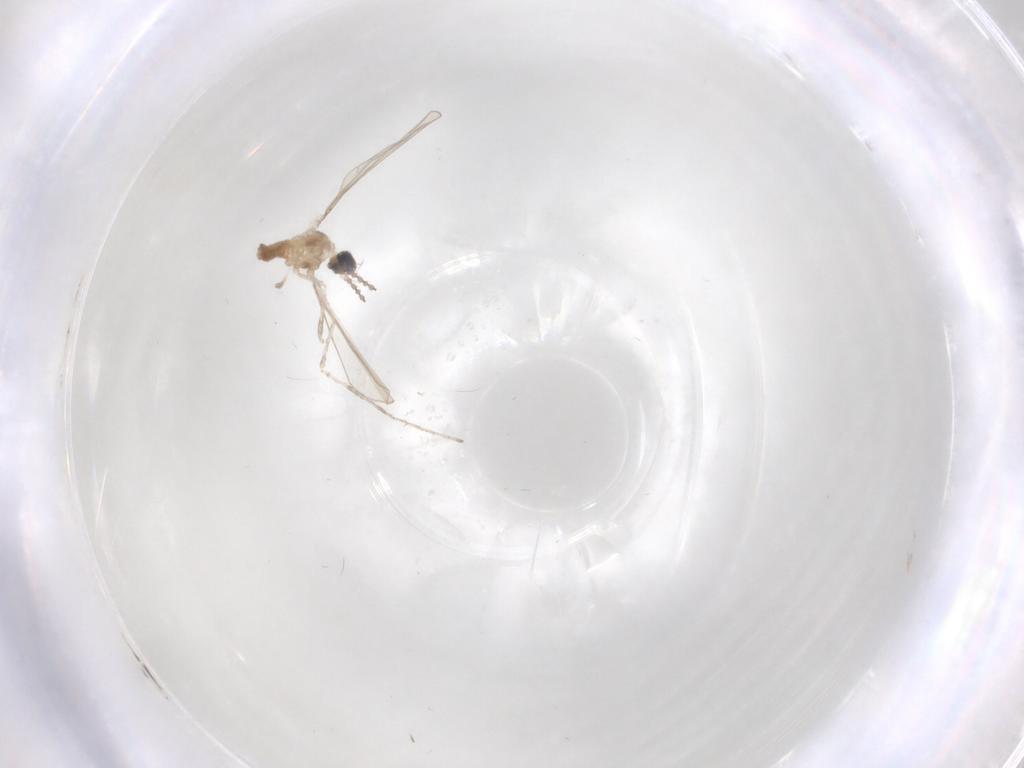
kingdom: Animalia
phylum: Arthropoda
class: Insecta
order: Diptera
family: Cecidomyiidae
